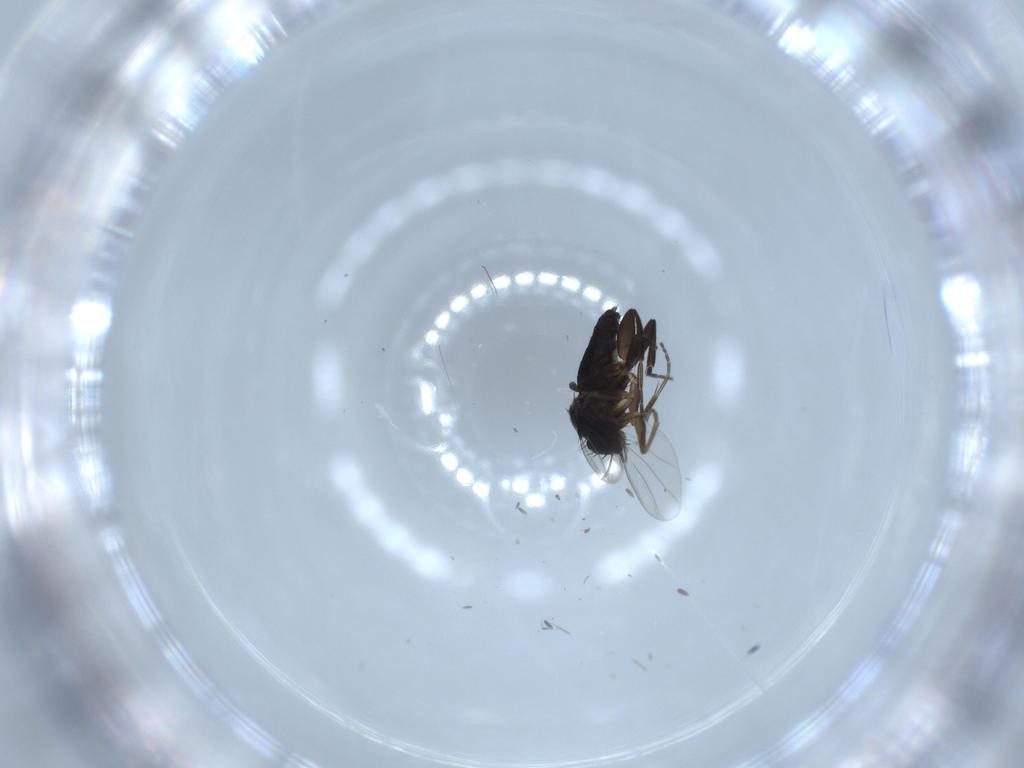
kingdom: Animalia
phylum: Arthropoda
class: Insecta
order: Diptera
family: Phoridae
